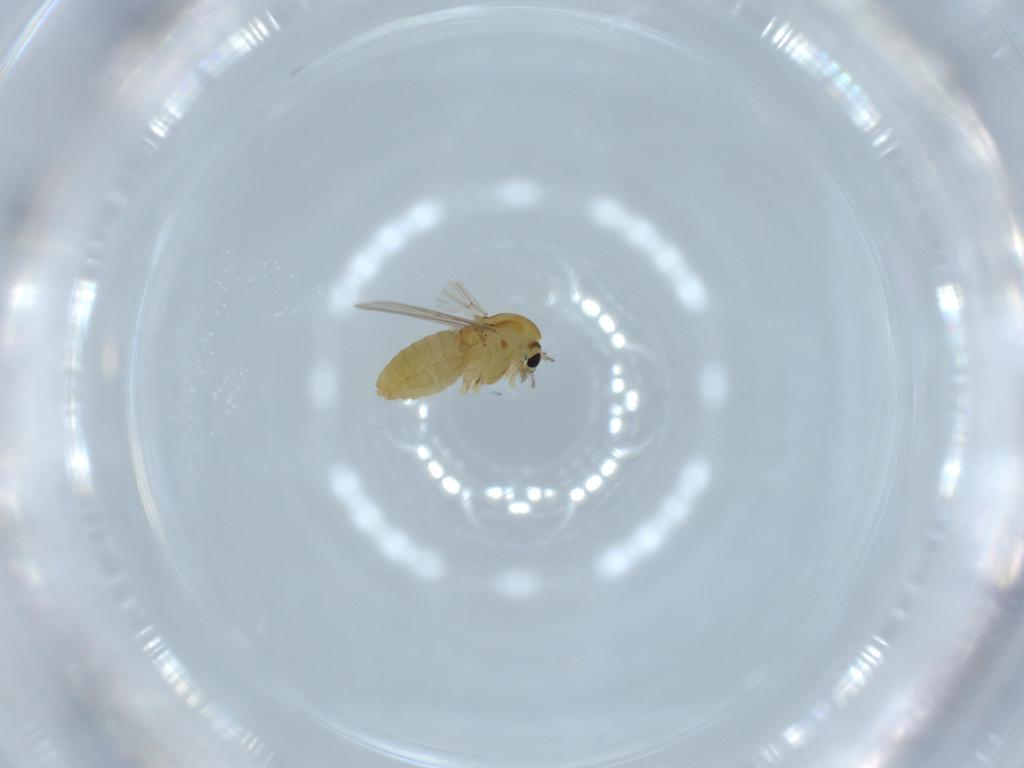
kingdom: Animalia
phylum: Arthropoda
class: Insecta
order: Diptera
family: Chironomidae
